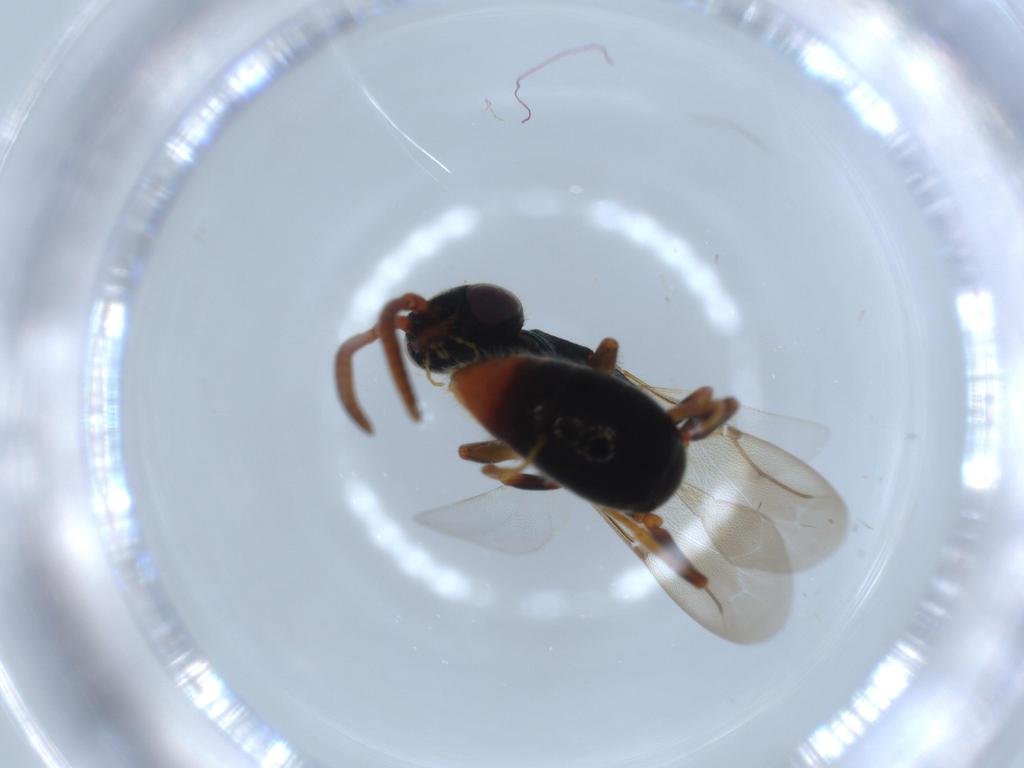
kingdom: Animalia
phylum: Arthropoda
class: Insecta
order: Hymenoptera
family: Bethylidae
